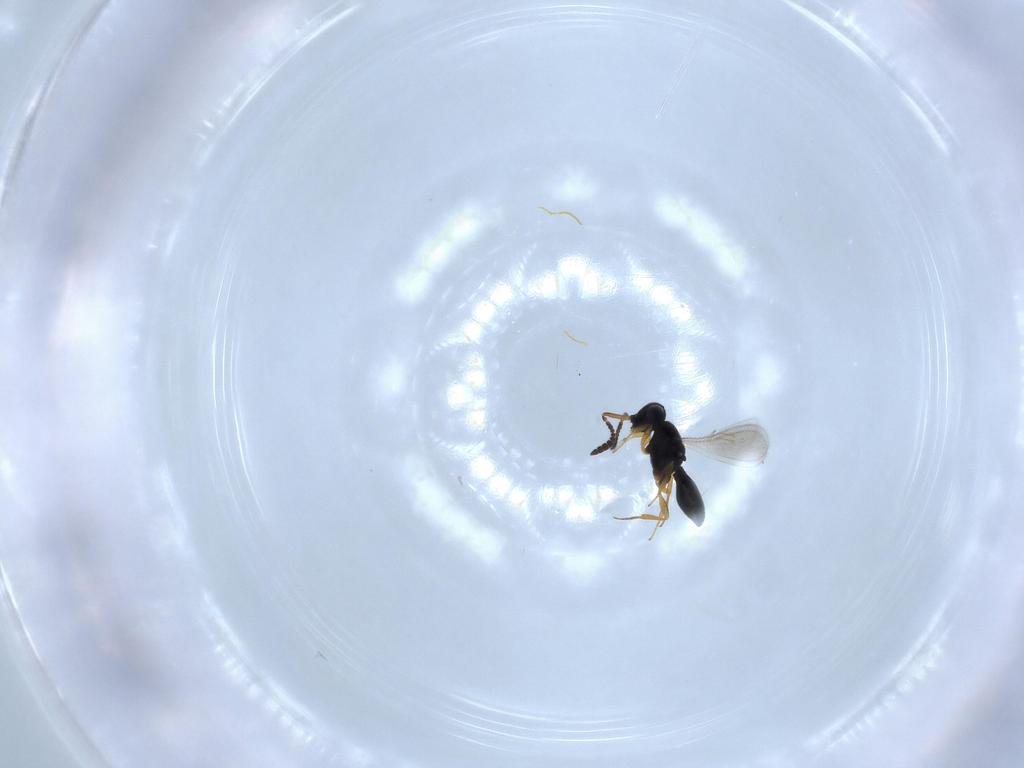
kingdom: Animalia
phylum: Arthropoda
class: Insecta
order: Hymenoptera
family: Scelionidae
